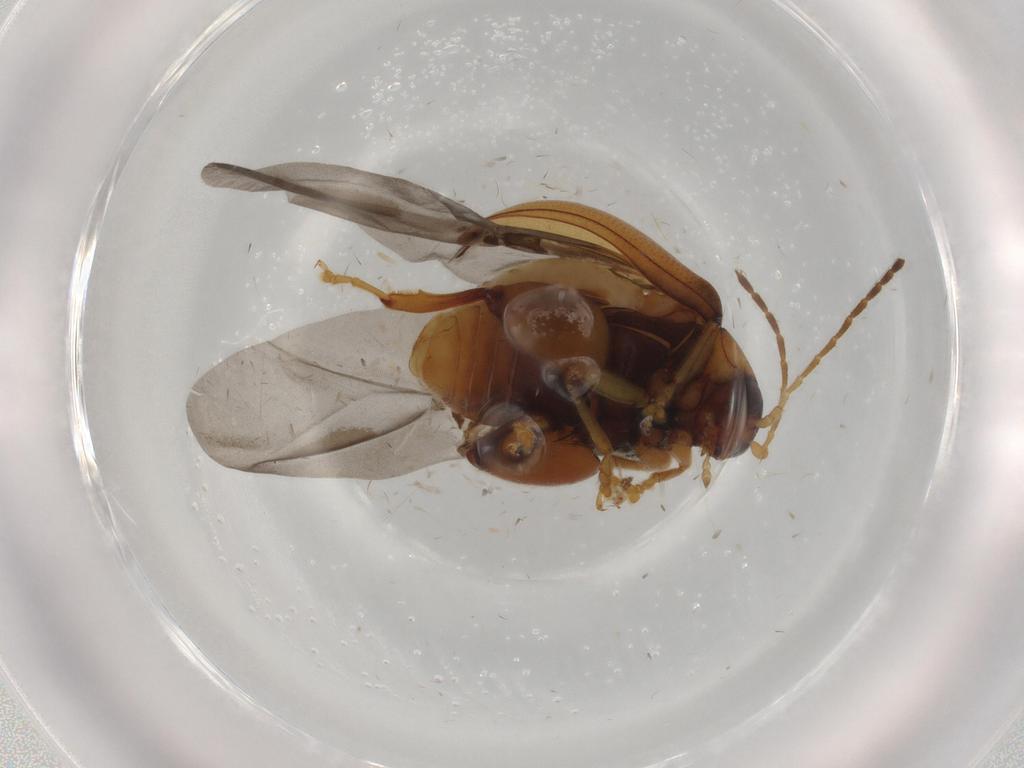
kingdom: Animalia
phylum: Arthropoda
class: Insecta
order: Coleoptera
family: Chrysomelidae
